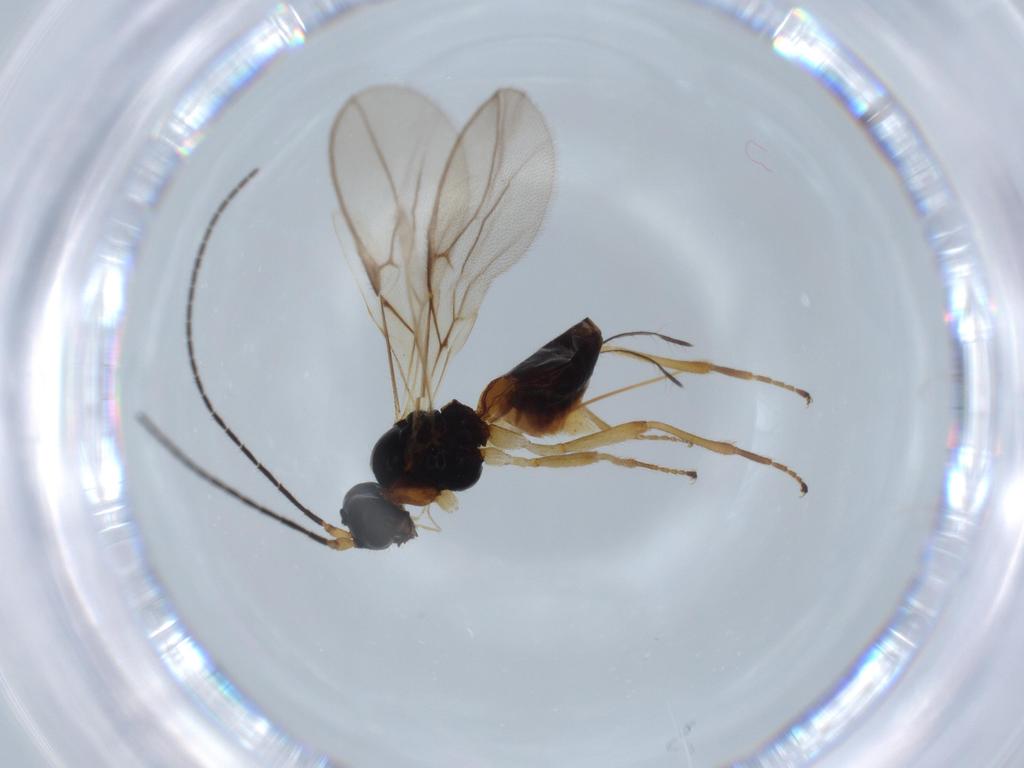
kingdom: Animalia
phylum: Arthropoda
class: Insecta
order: Hymenoptera
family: Braconidae
